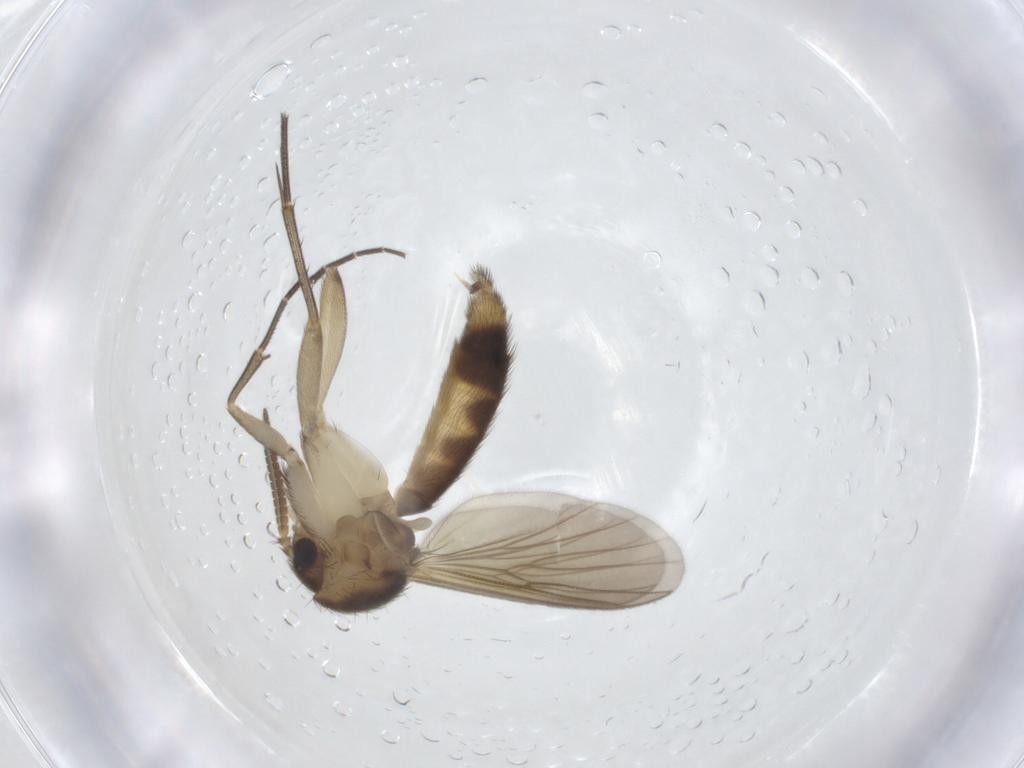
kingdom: Animalia
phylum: Arthropoda
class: Insecta
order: Diptera
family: Mycetophilidae
